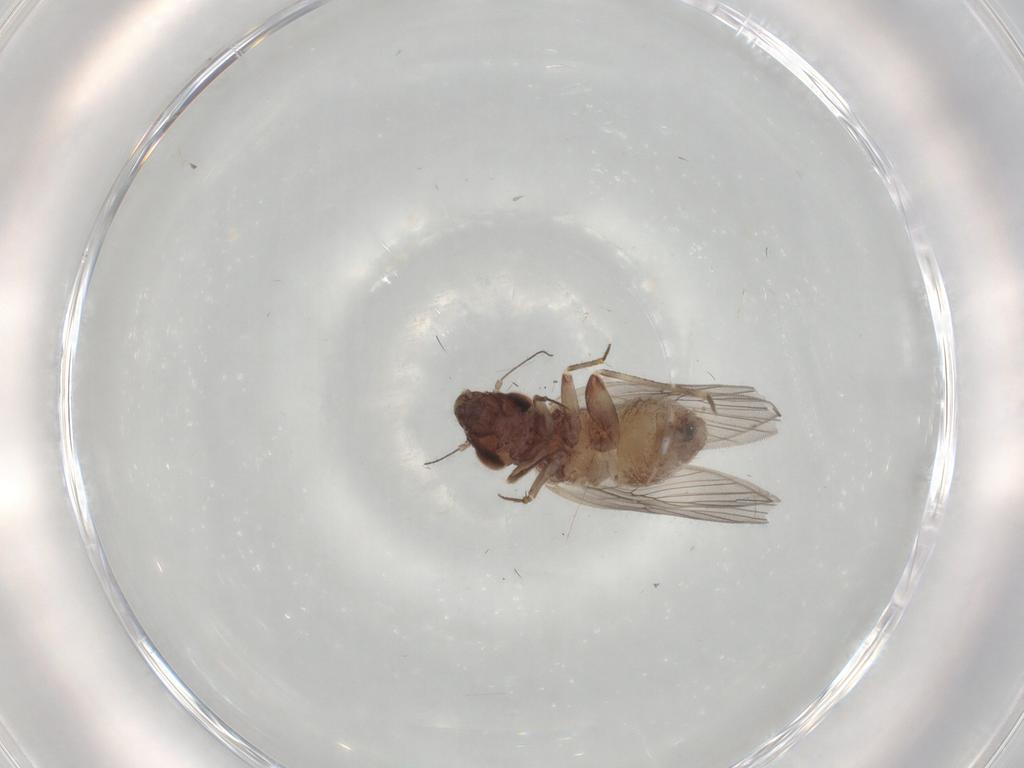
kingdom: Animalia
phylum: Arthropoda
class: Insecta
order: Psocodea
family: Lepidopsocidae
